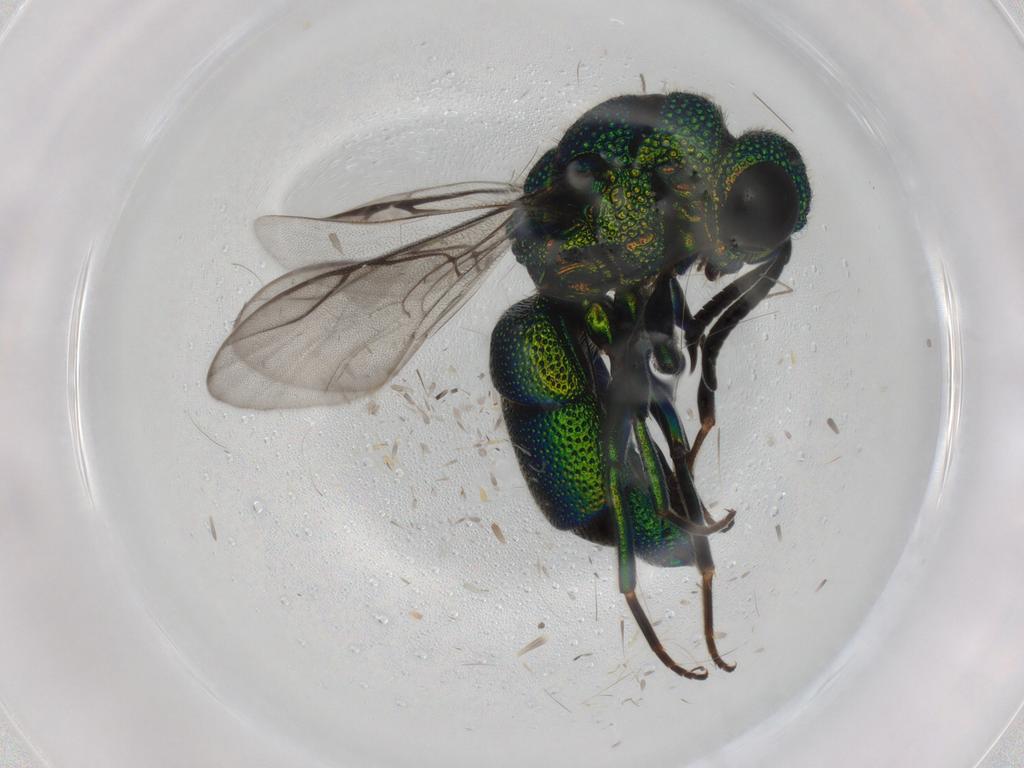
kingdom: Animalia
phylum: Arthropoda
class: Insecta
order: Hymenoptera
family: Chrysididae
